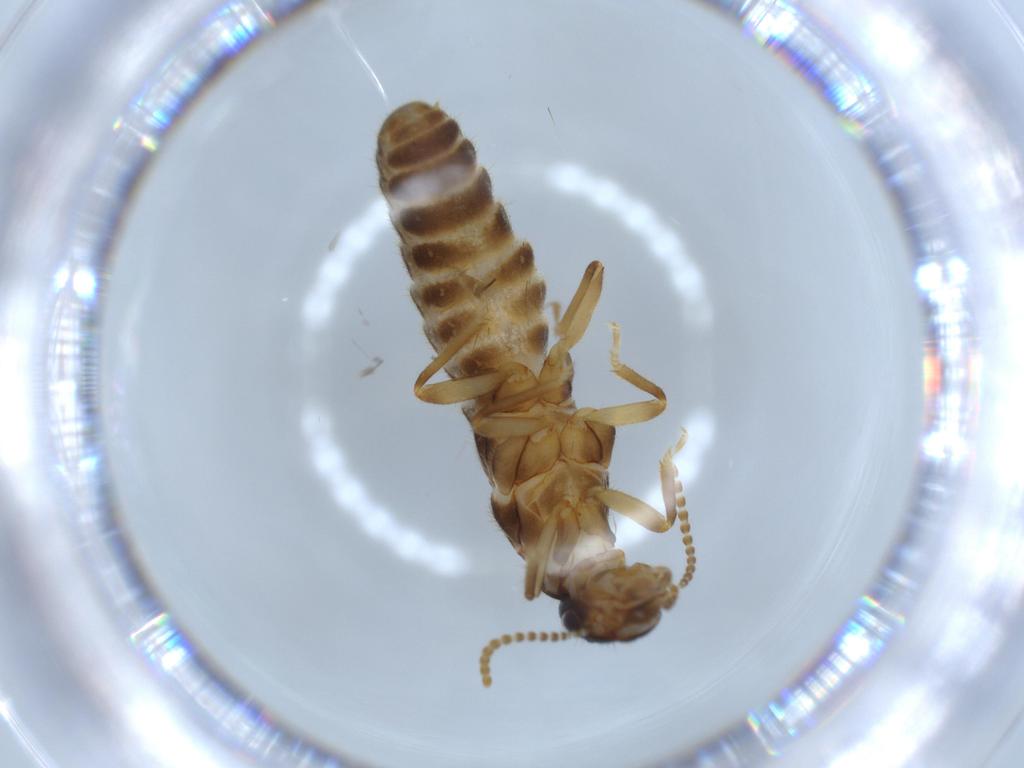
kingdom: Animalia
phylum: Arthropoda
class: Insecta
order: Blattodea
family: Termitidae
